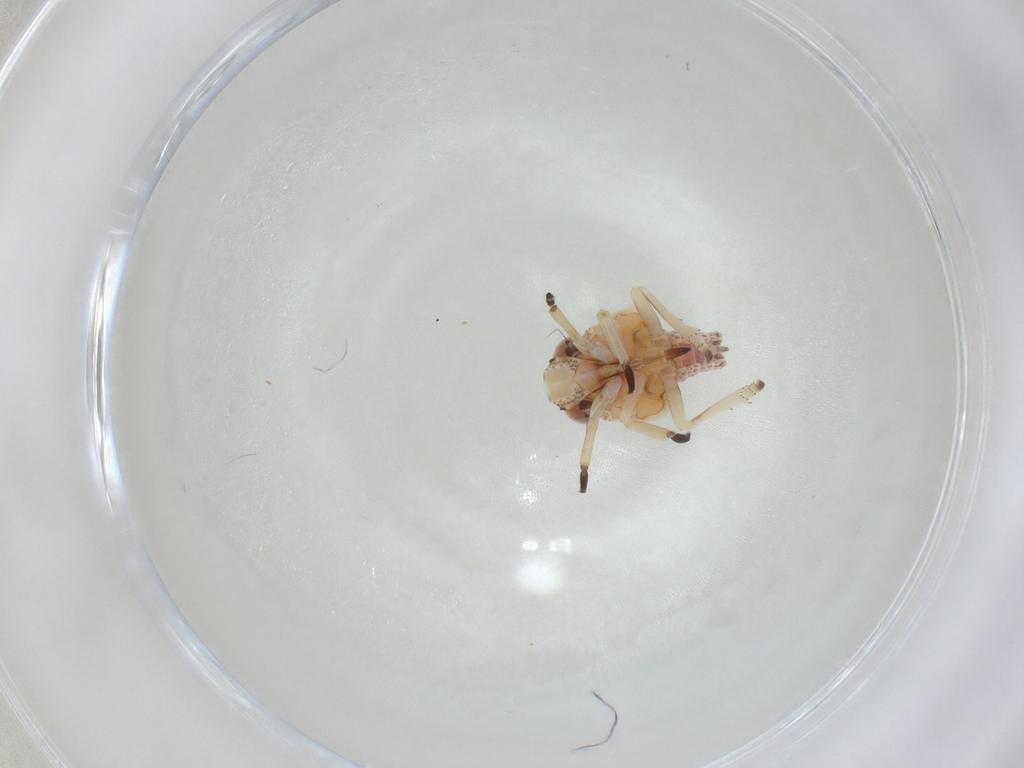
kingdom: Animalia
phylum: Arthropoda
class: Insecta
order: Hemiptera
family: Tropiduchidae
